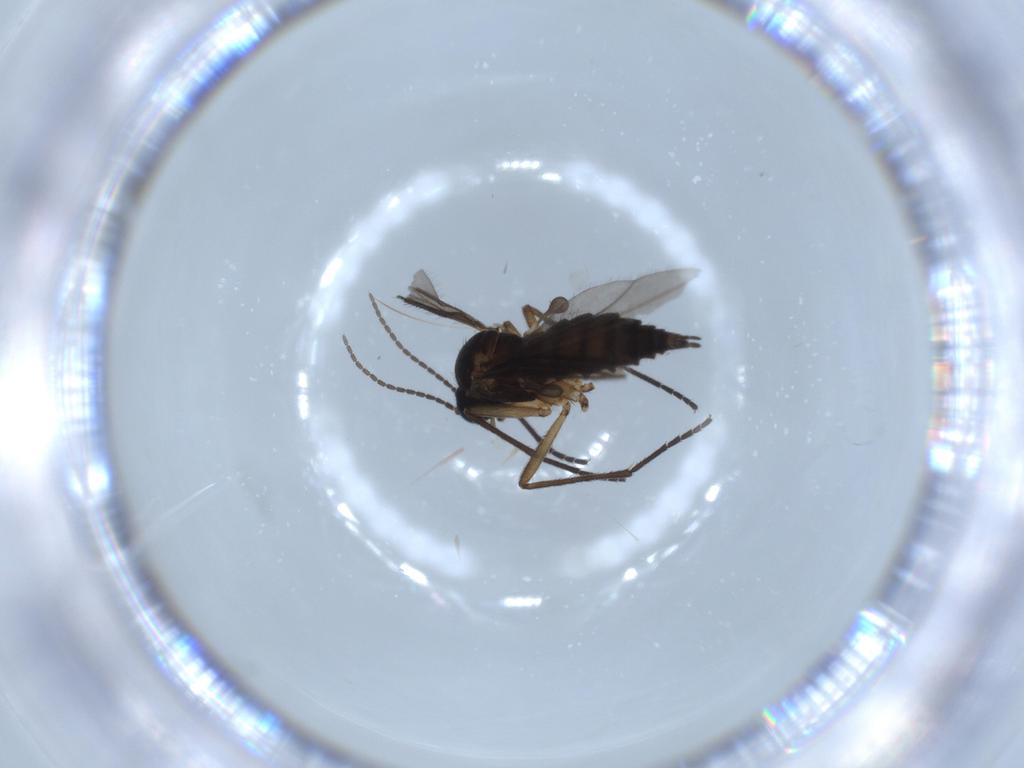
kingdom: Animalia
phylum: Arthropoda
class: Insecta
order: Diptera
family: Sciaridae
